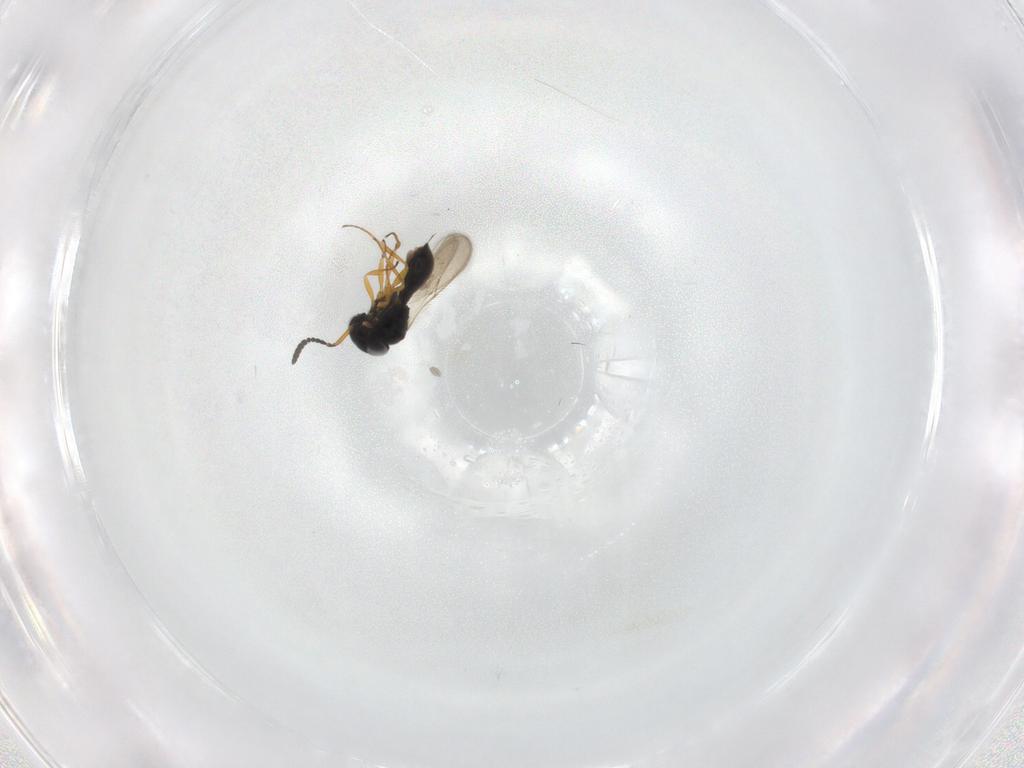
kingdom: Animalia
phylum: Arthropoda
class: Insecta
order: Hymenoptera
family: Scelionidae
